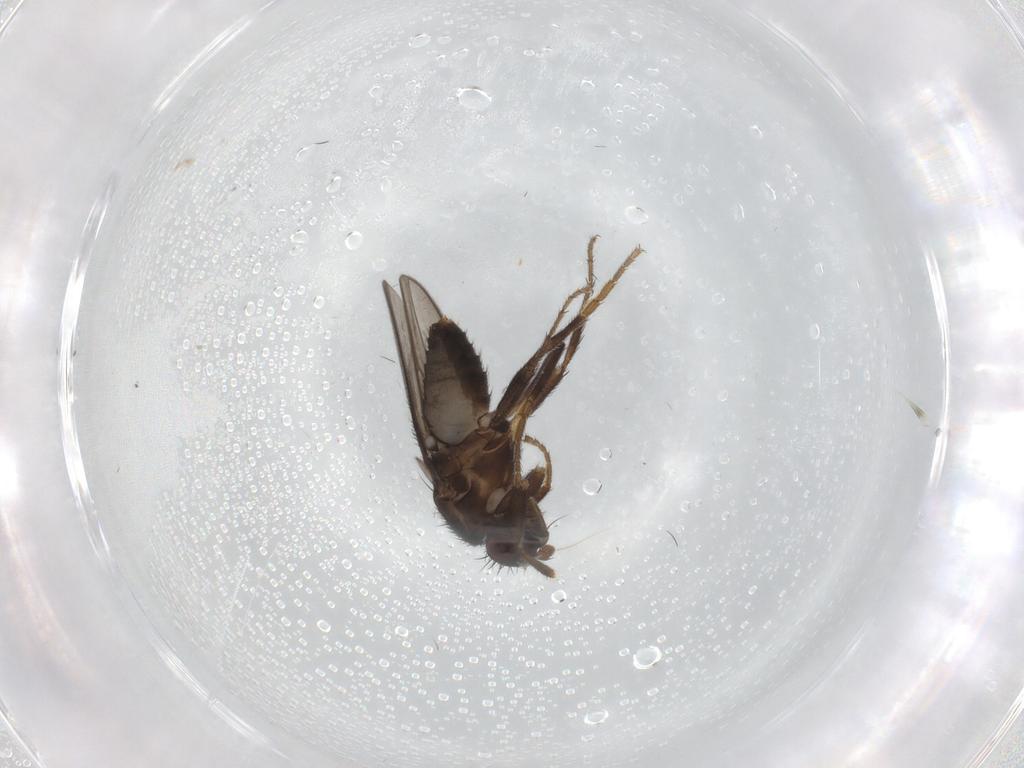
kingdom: Animalia
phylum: Arthropoda
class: Insecta
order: Diptera
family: Sphaeroceridae
